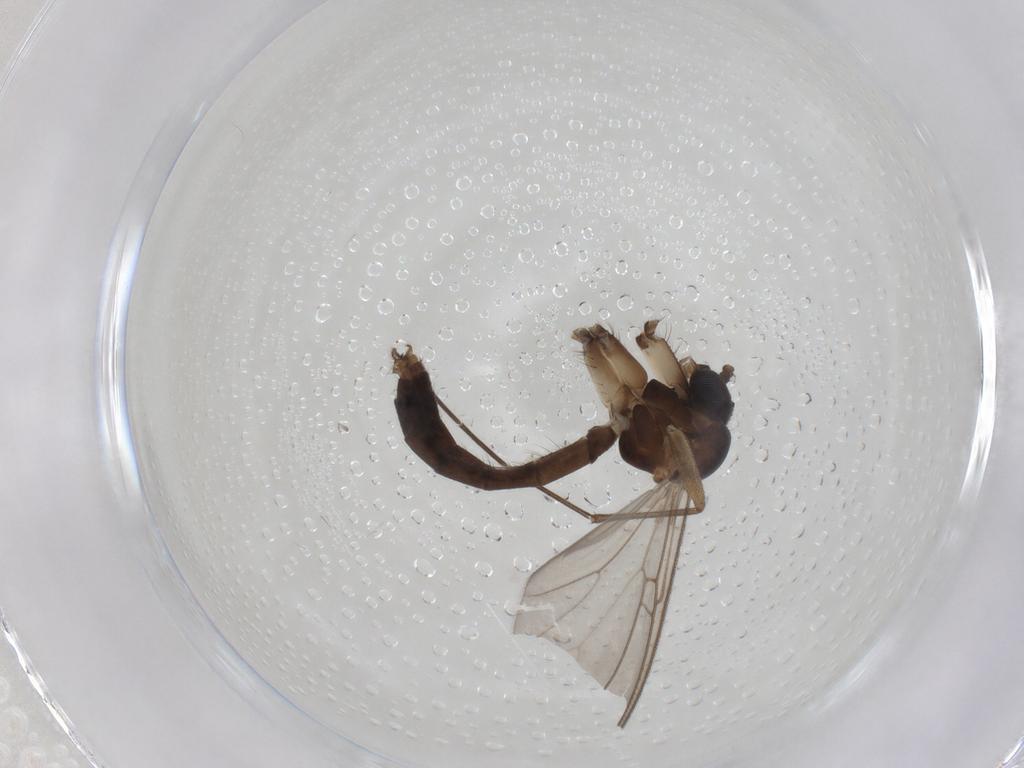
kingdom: Animalia
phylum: Arthropoda
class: Insecta
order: Diptera
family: Mycetophilidae
